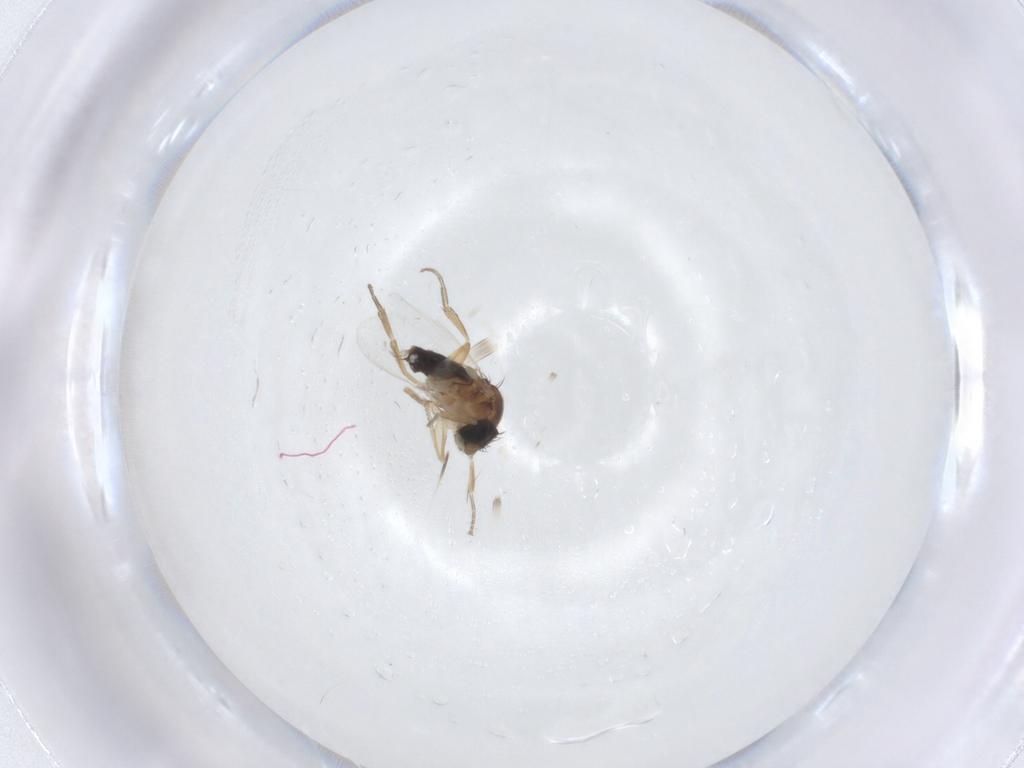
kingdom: Animalia
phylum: Arthropoda
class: Insecta
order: Diptera
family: Phoridae
